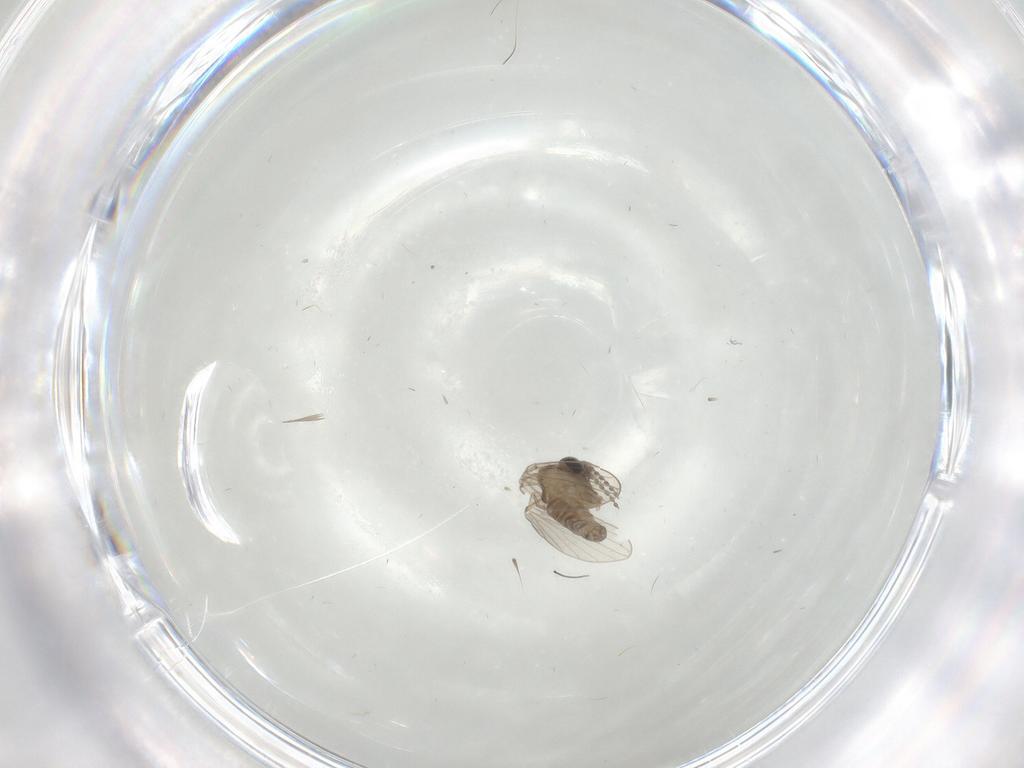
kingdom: Animalia
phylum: Arthropoda
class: Insecta
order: Diptera
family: Psychodidae
